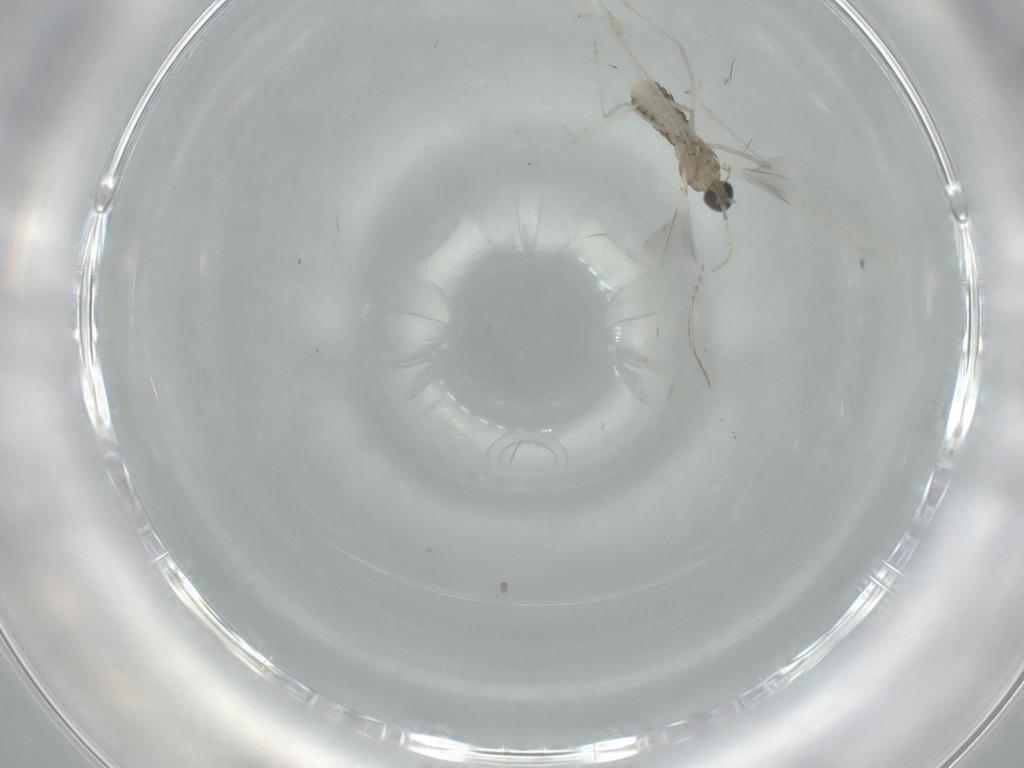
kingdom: Animalia
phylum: Arthropoda
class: Insecta
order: Diptera
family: Cecidomyiidae
